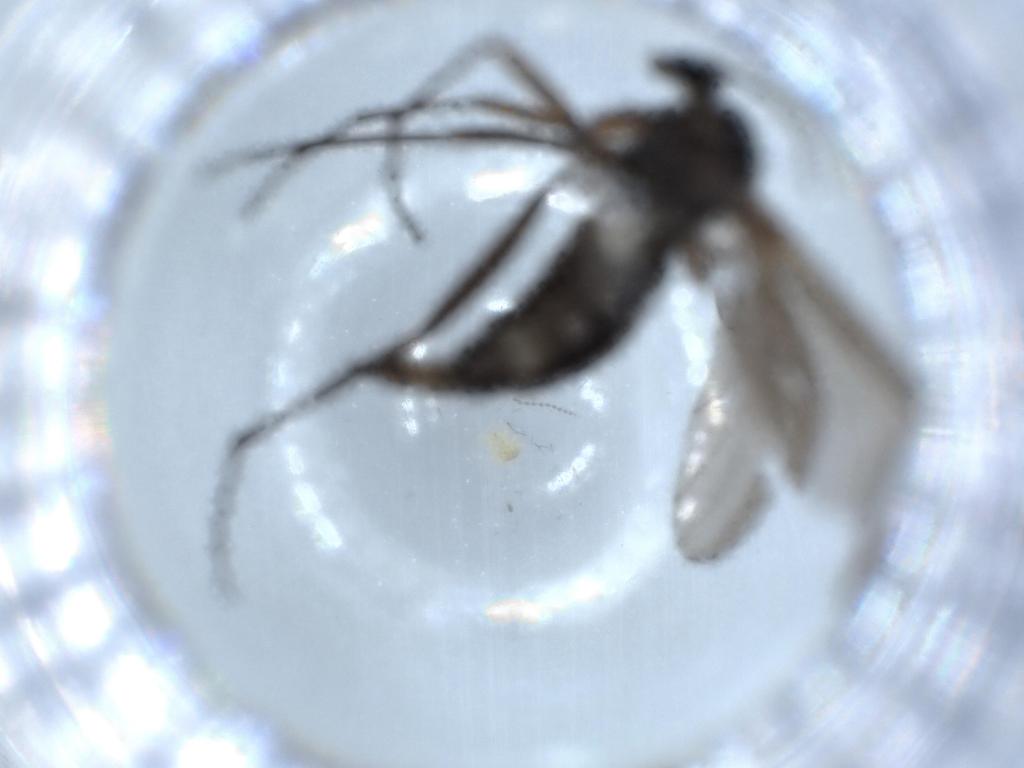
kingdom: Animalia
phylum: Arthropoda
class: Insecta
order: Diptera
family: Sciaridae
